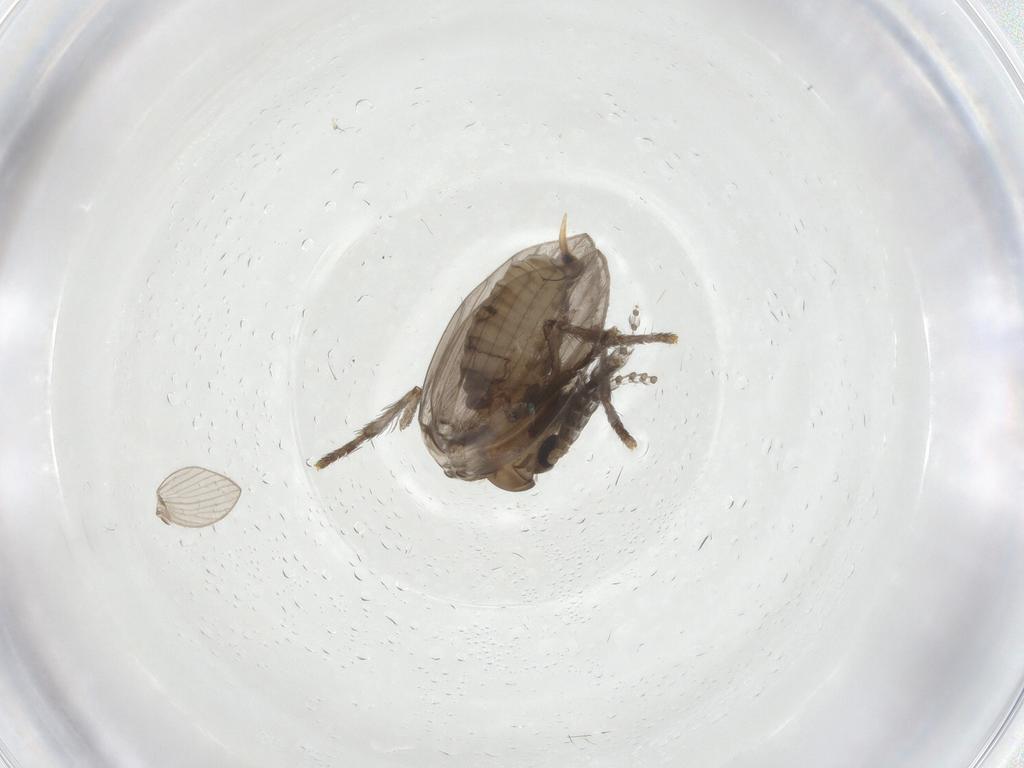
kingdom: Animalia
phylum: Arthropoda
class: Insecta
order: Diptera
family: Psychodidae
